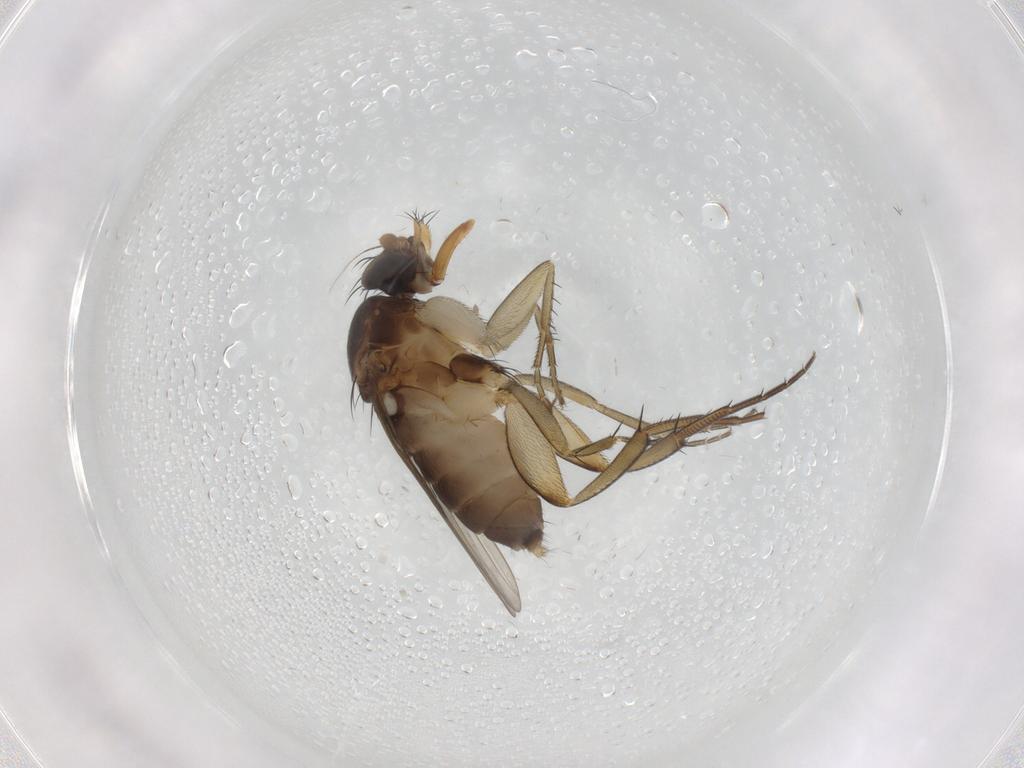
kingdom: Animalia
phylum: Arthropoda
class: Insecta
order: Diptera
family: Phoridae
